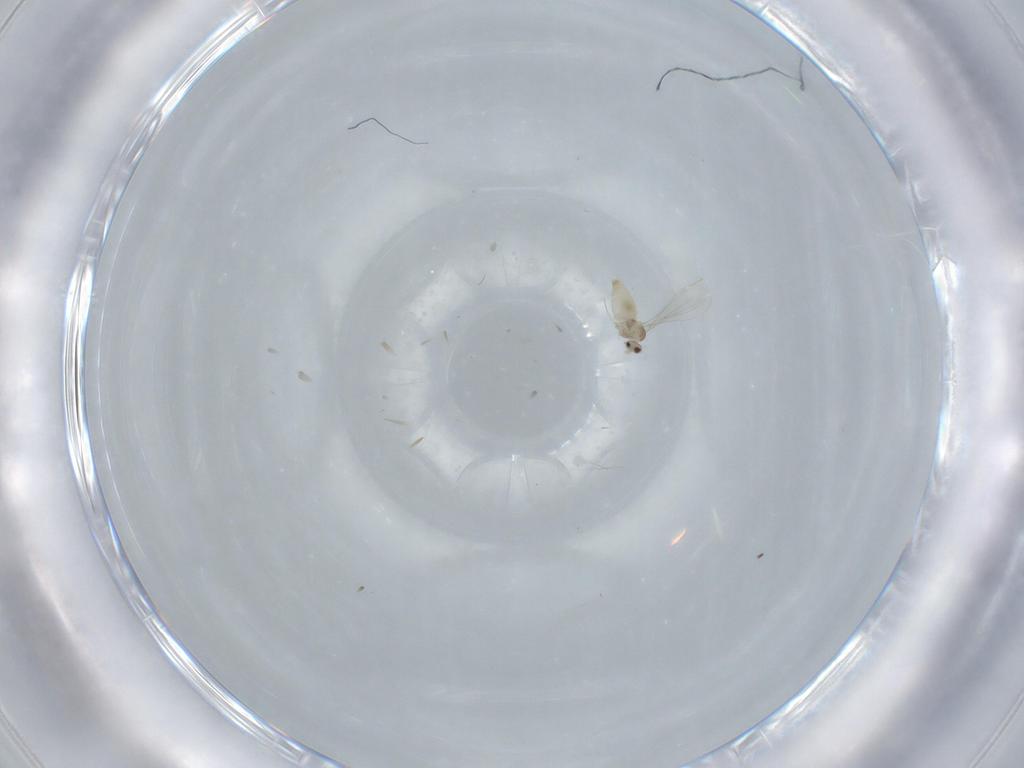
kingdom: Animalia
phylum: Arthropoda
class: Insecta
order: Diptera
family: Cecidomyiidae
